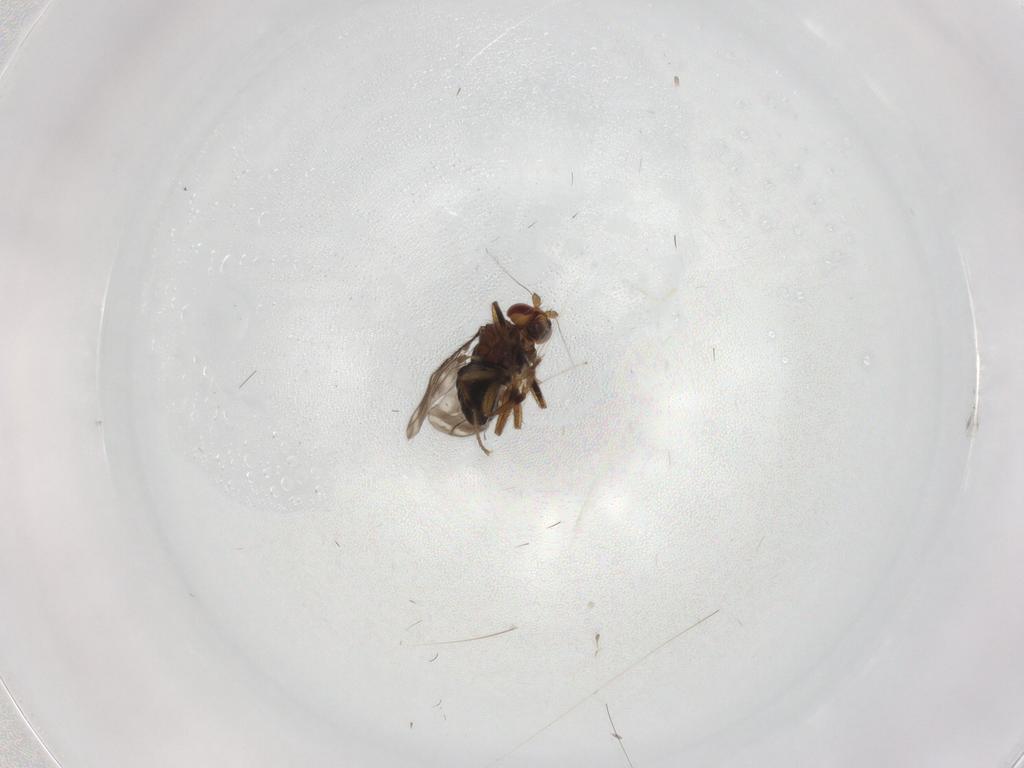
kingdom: Animalia
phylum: Arthropoda
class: Insecta
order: Diptera
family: Sphaeroceridae
